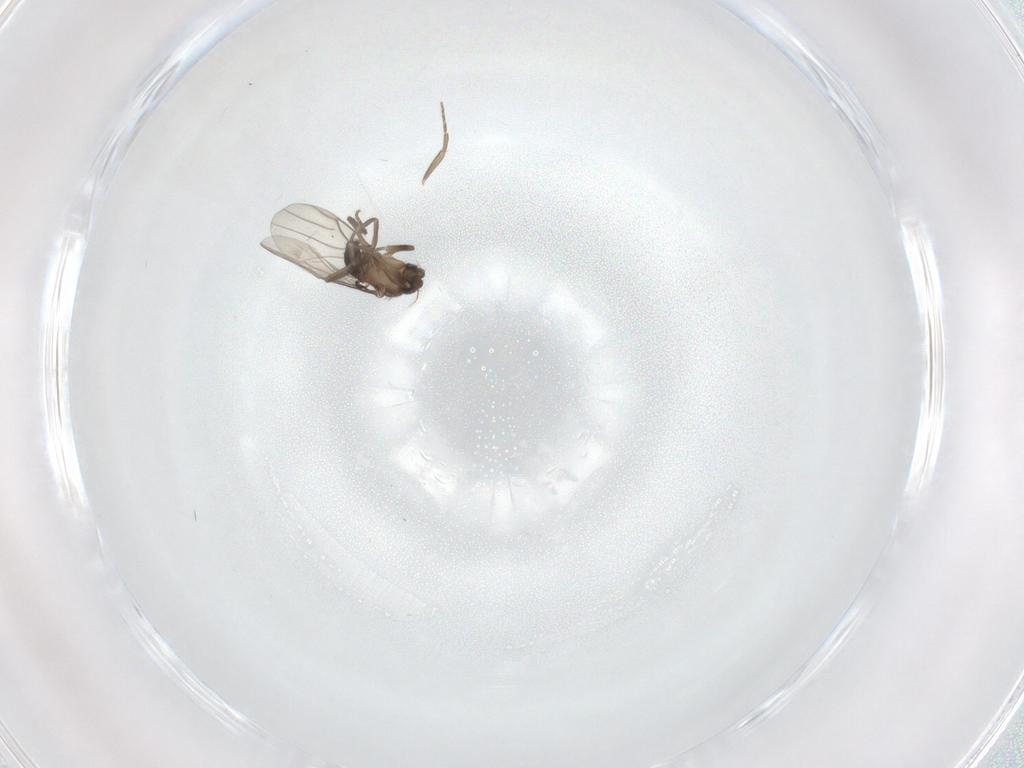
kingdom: Animalia
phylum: Arthropoda
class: Insecta
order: Diptera
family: Phoridae
